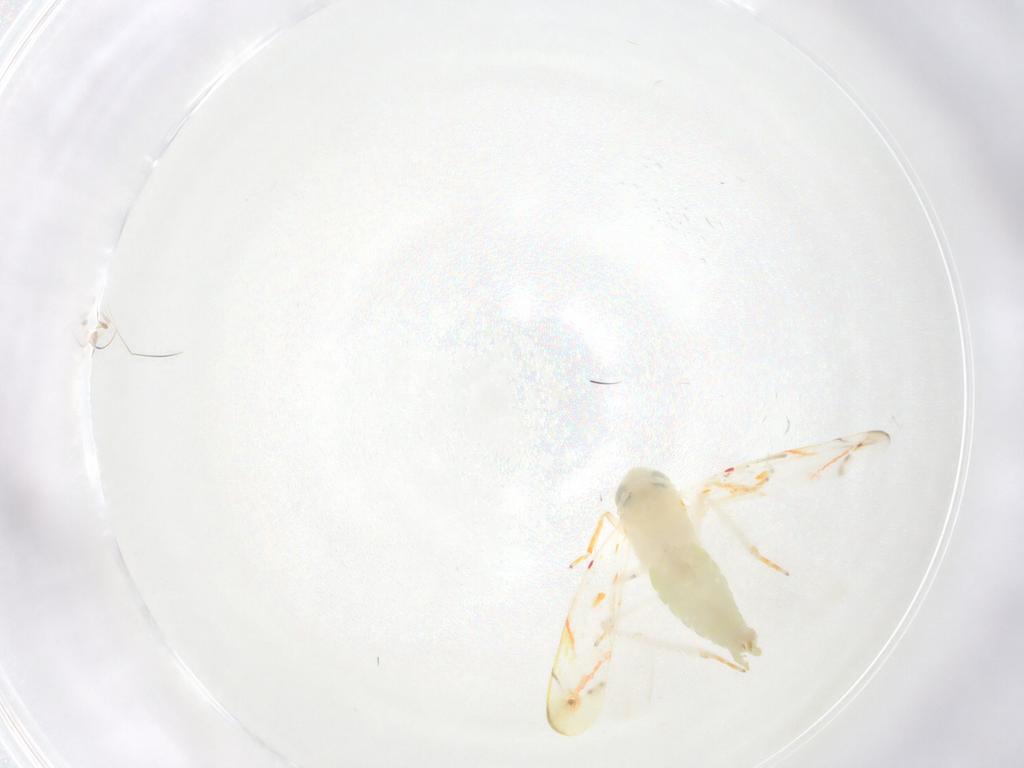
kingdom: Animalia
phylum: Arthropoda
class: Insecta
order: Hemiptera
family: Cicadellidae
